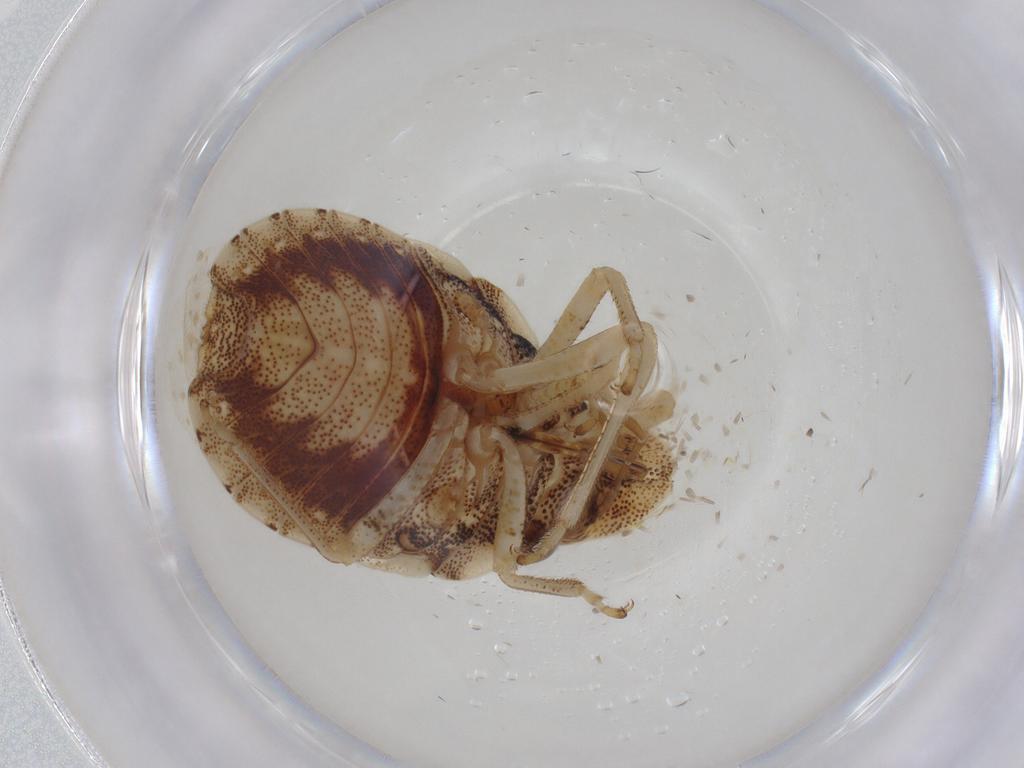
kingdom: Animalia
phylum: Arthropoda
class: Insecta
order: Hemiptera
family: Pentatomidae
